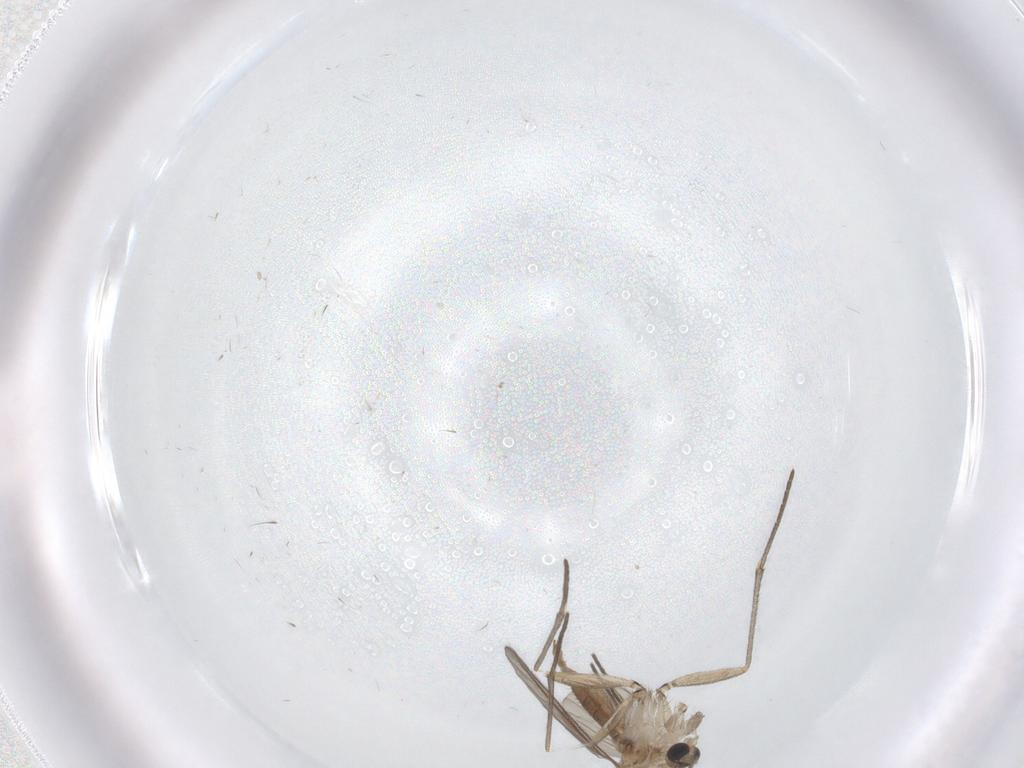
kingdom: Animalia
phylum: Arthropoda
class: Insecta
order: Diptera
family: Sciaridae
